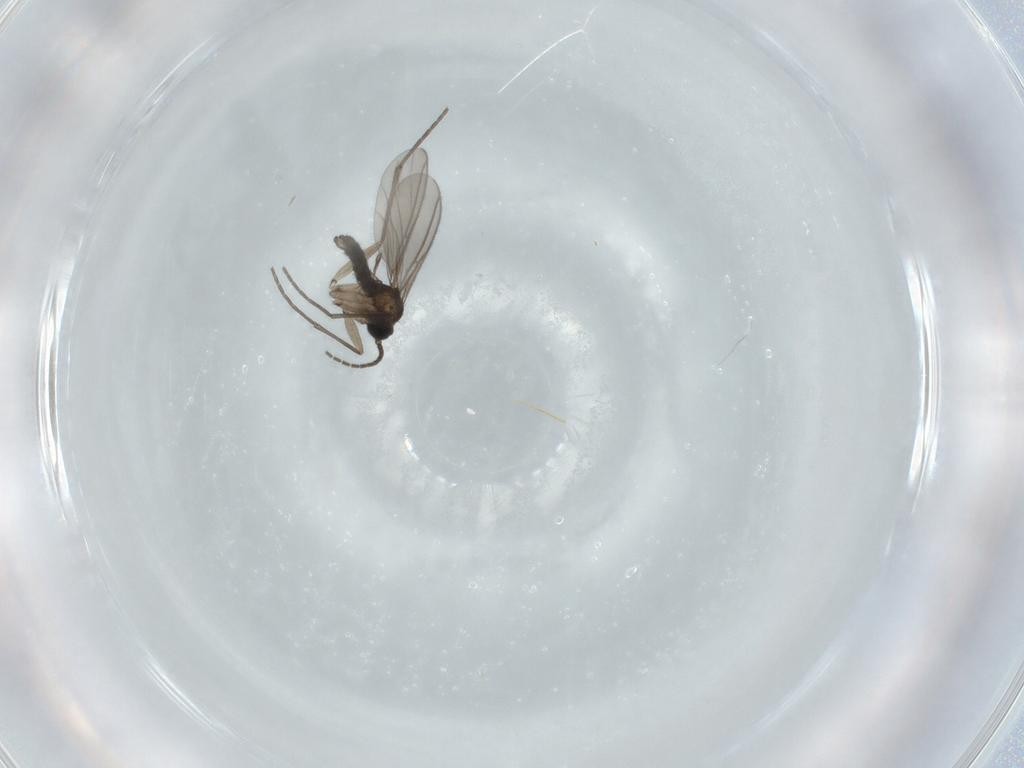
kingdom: Animalia
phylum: Arthropoda
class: Insecta
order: Diptera
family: Sciaridae
